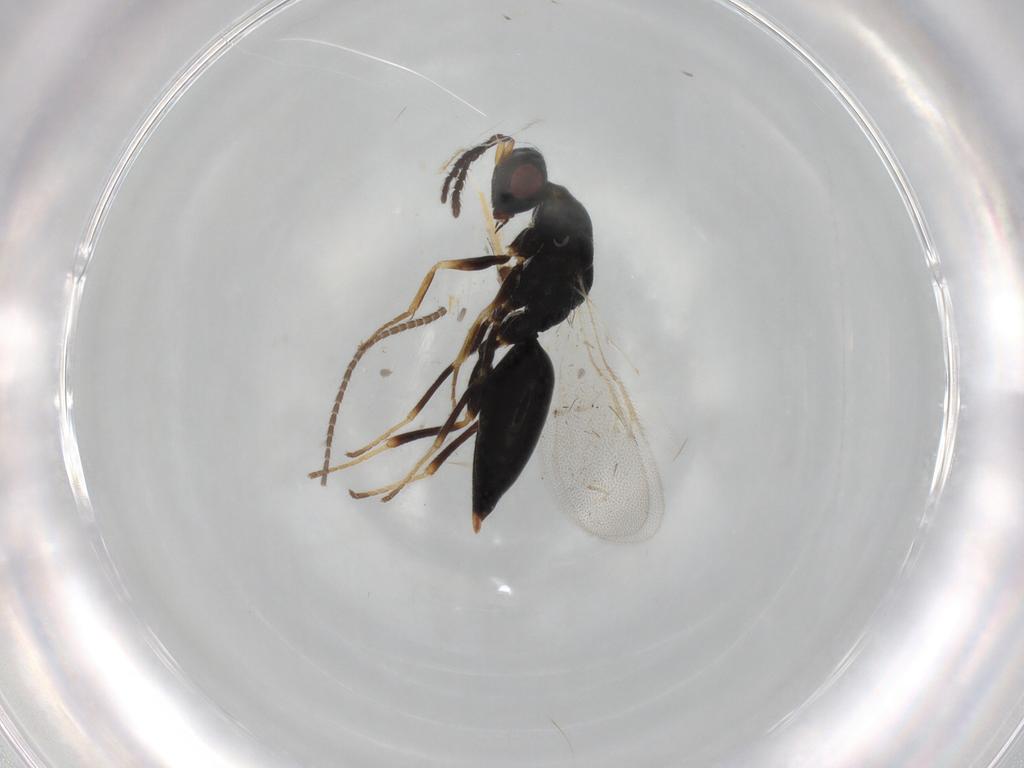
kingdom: Animalia
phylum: Arthropoda
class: Insecta
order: Hymenoptera
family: Eurytomidae
